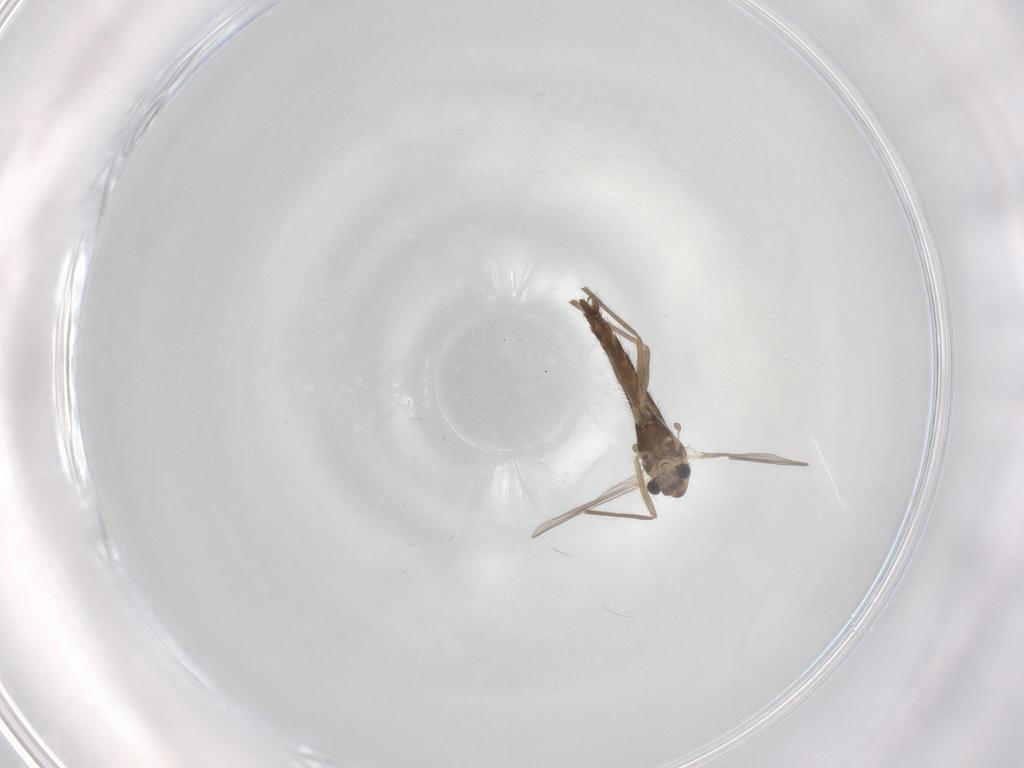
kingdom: Animalia
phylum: Arthropoda
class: Insecta
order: Diptera
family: Chironomidae
